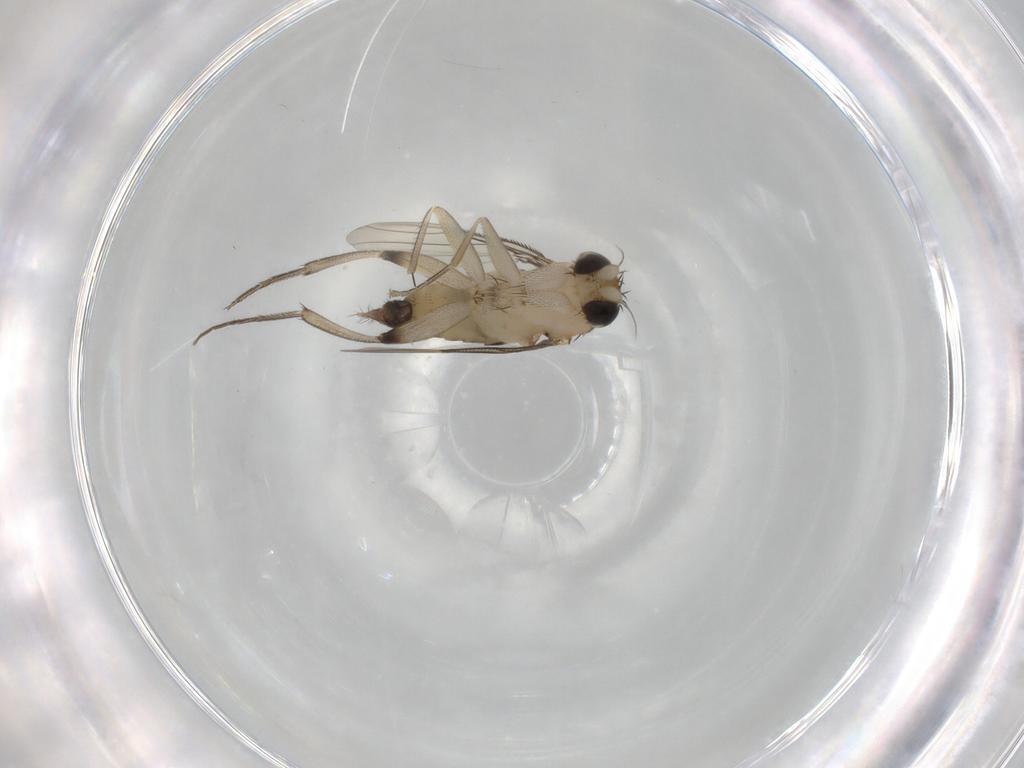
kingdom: Animalia
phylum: Arthropoda
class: Insecta
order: Diptera
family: Phoridae
